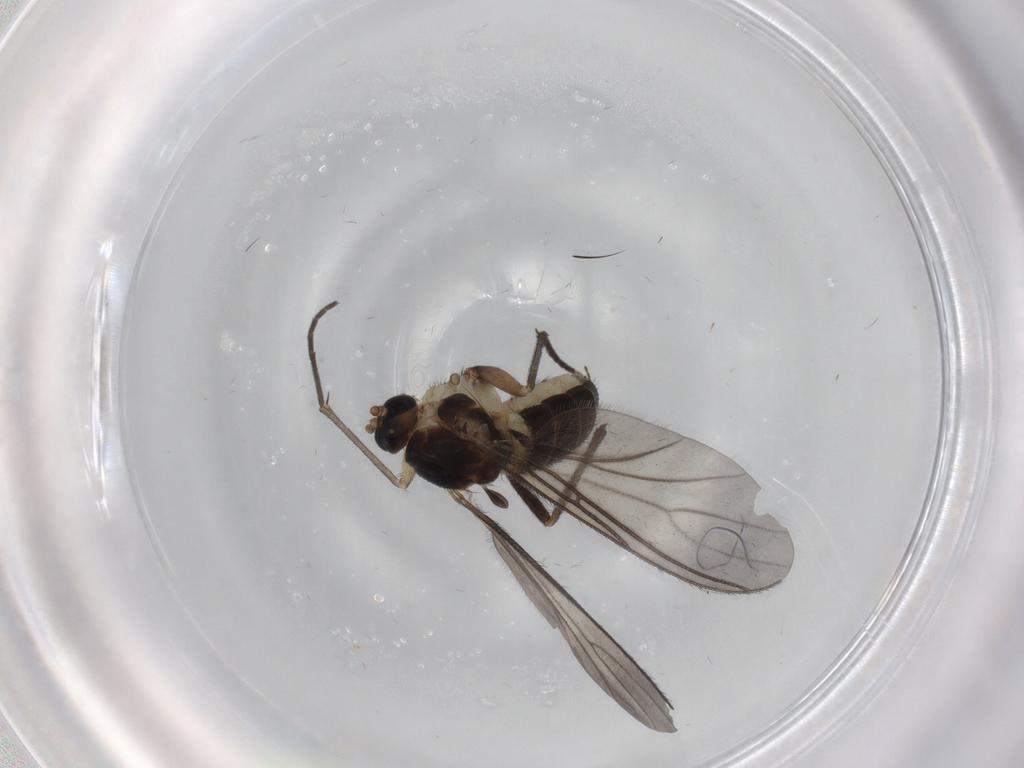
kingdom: Animalia
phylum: Arthropoda
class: Insecta
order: Diptera
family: Sciaridae
